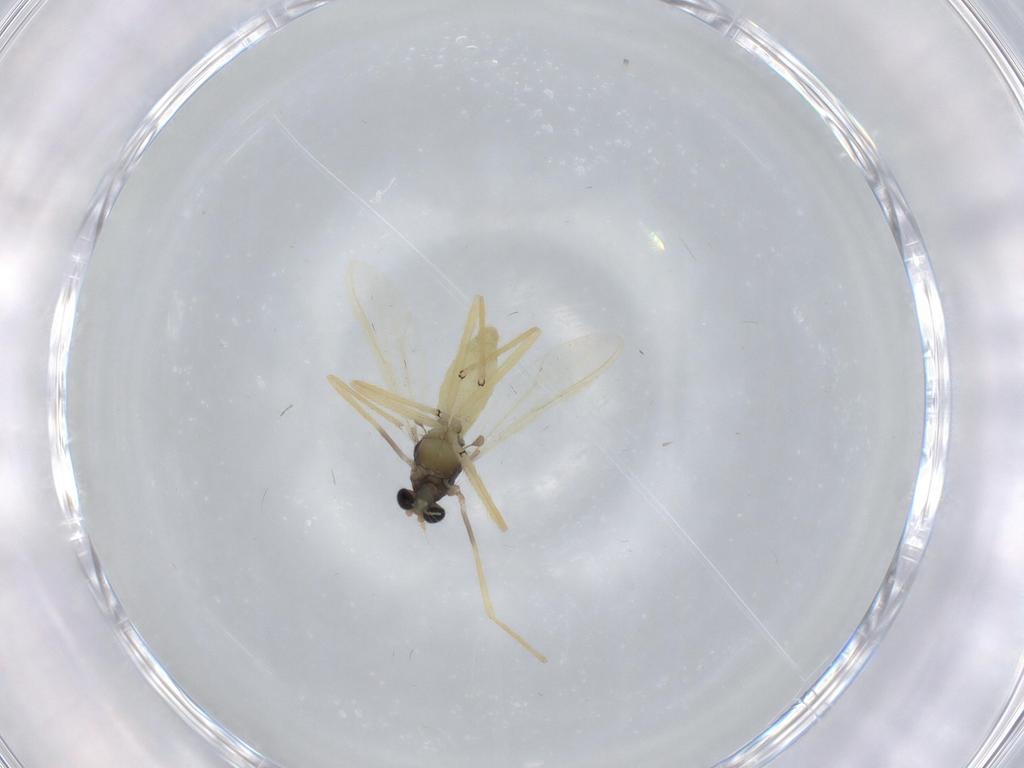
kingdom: Animalia
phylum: Arthropoda
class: Insecta
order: Diptera
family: Chironomidae
